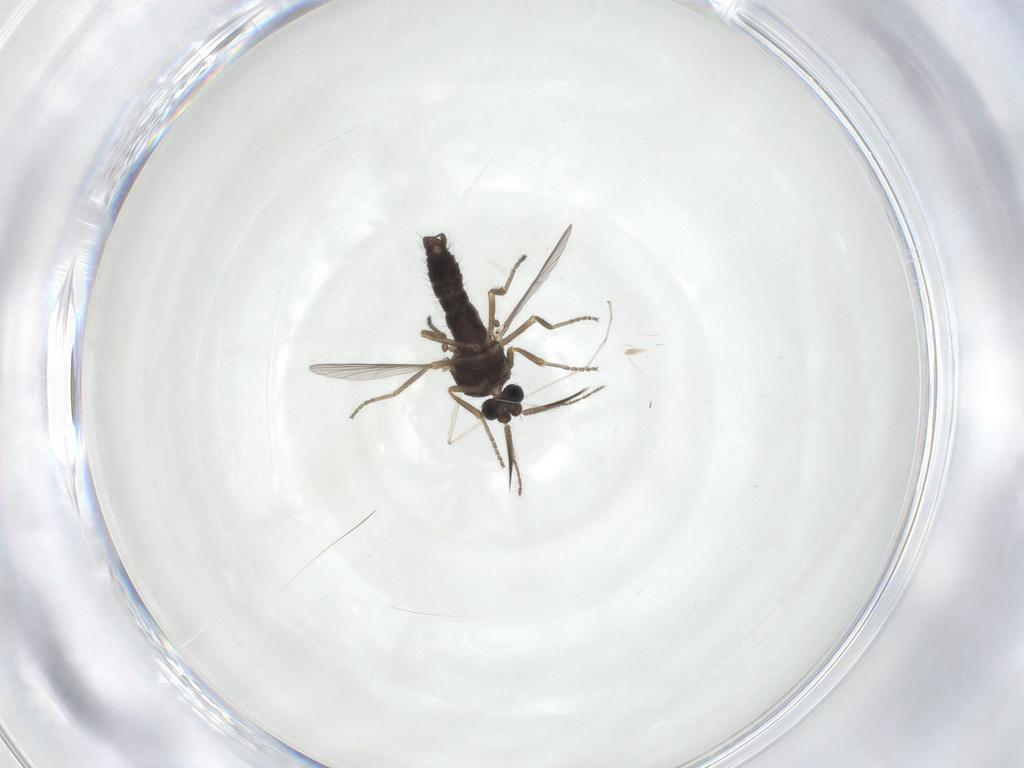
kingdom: Animalia
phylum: Arthropoda
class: Insecta
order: Diptera
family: Ceratopogonidae
